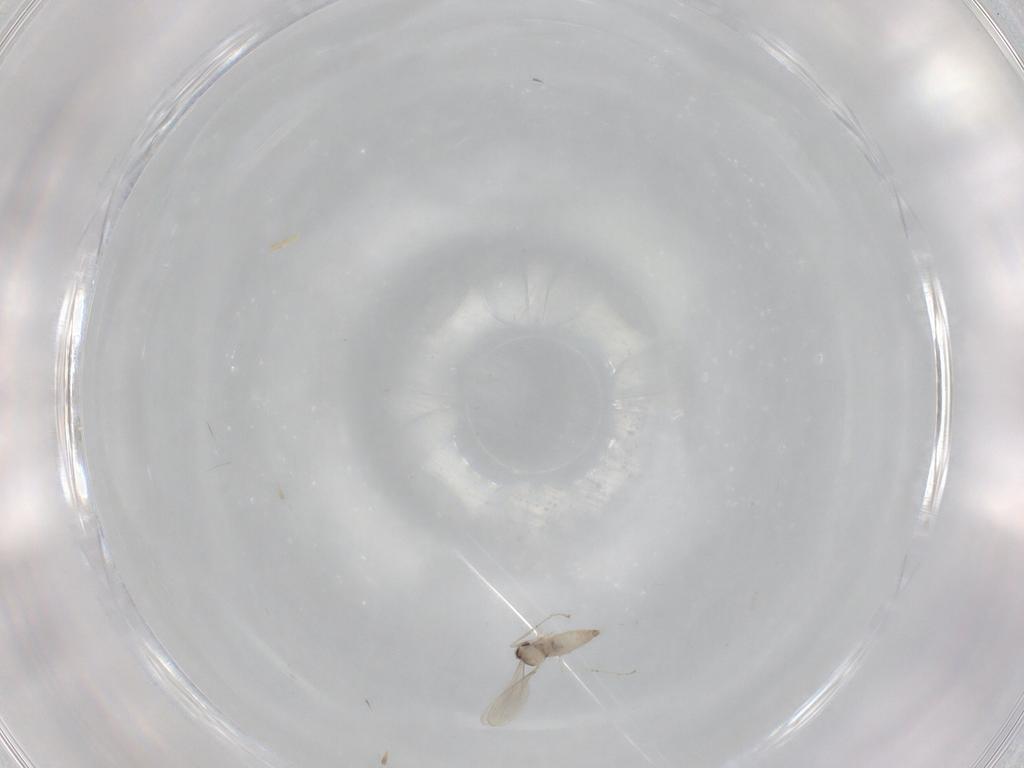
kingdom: Animalia
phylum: Arthropoda
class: Insecta
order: Diptera
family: Cecidomyiidae
